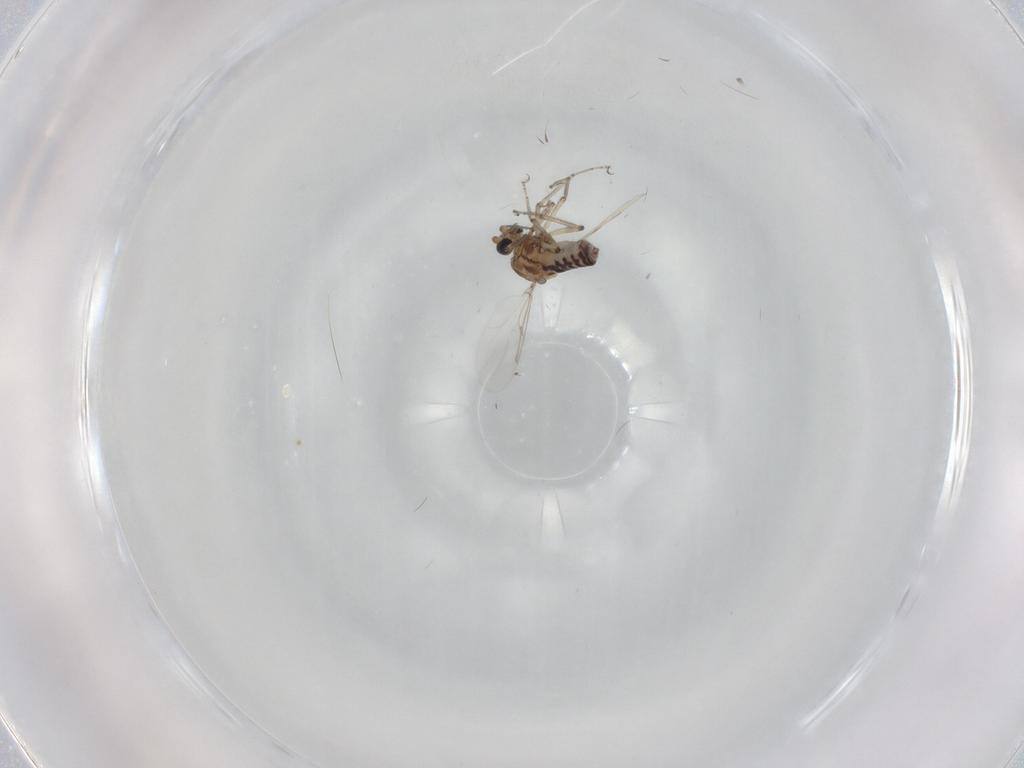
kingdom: Animalia
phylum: Arthropoda
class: Insecta
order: Diptera
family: Ceratopogonidae
